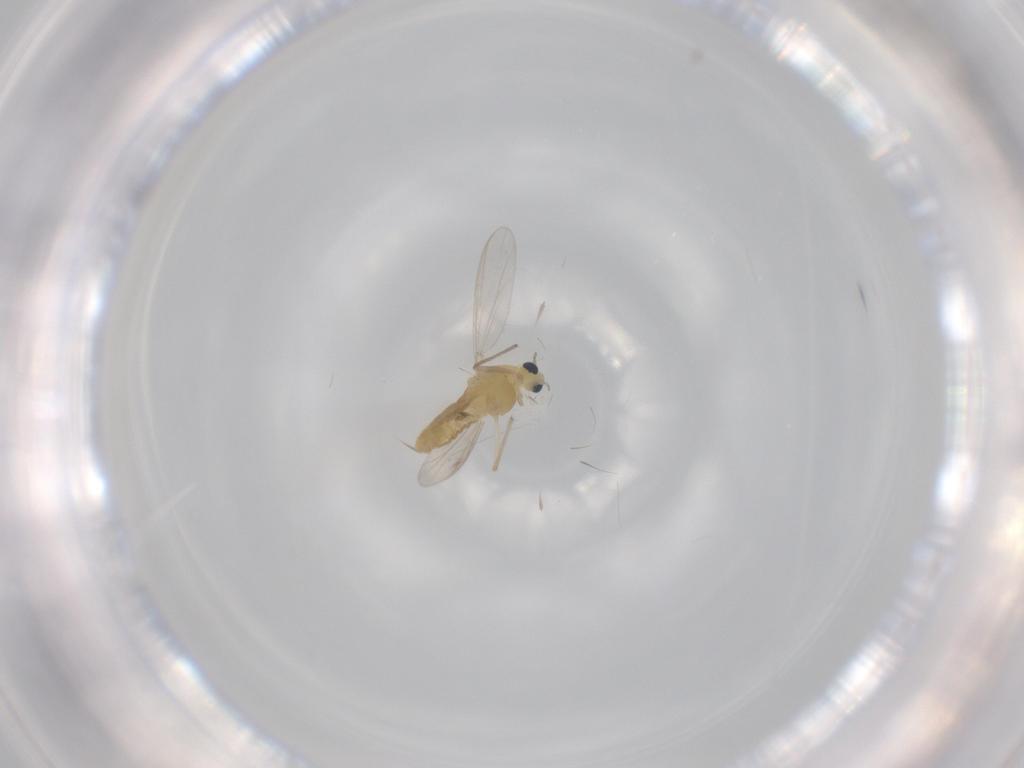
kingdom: Animalia
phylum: Arthropoda
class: Insecta
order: Diptera
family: Chironomidae
